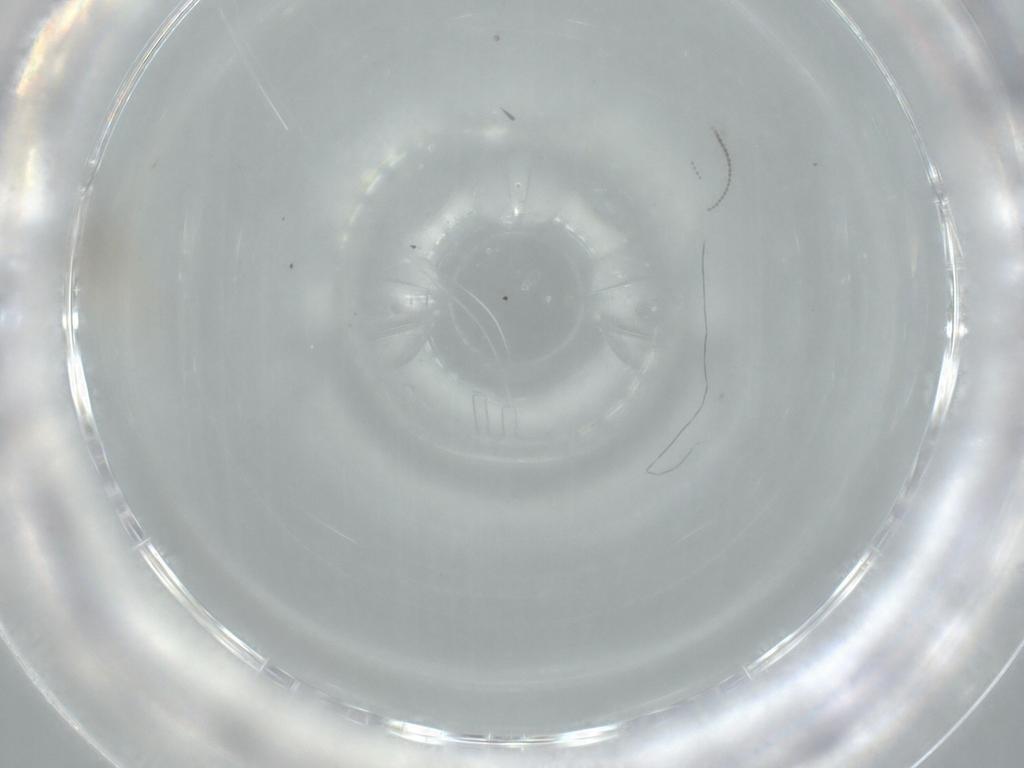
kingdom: Animalia
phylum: Arthropoda
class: Insecta
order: Diptera
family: Cecidomyiidae
